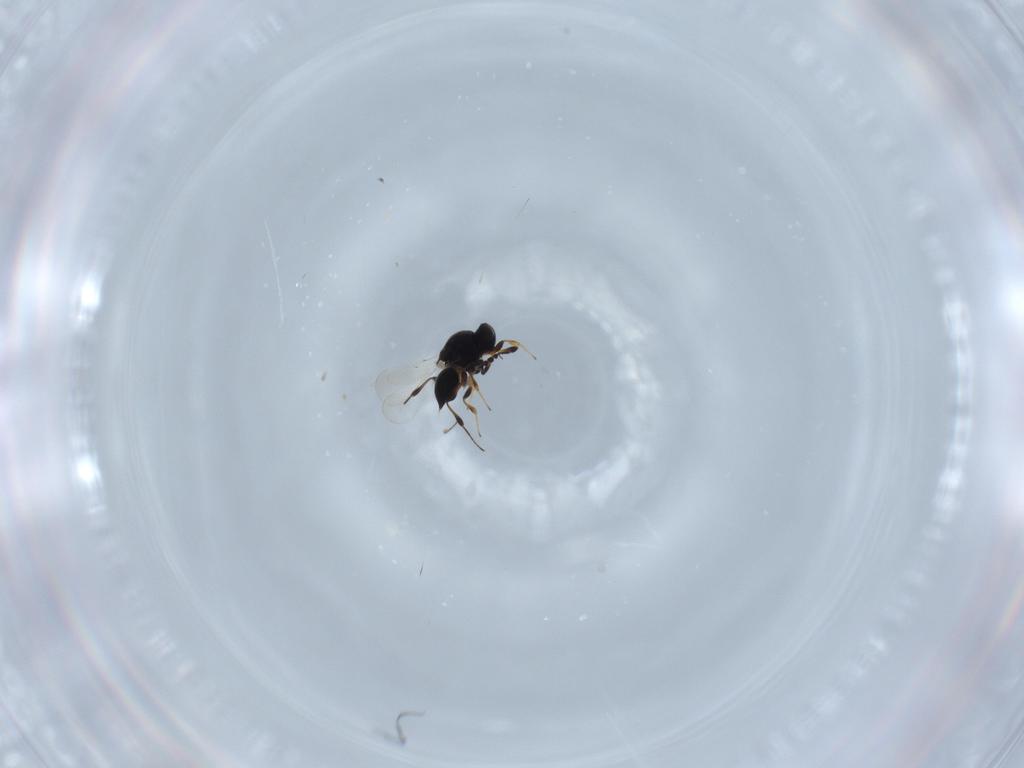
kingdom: Animalia
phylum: Arthropoda
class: Insecta
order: Hymenoptera
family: Platygastridae
